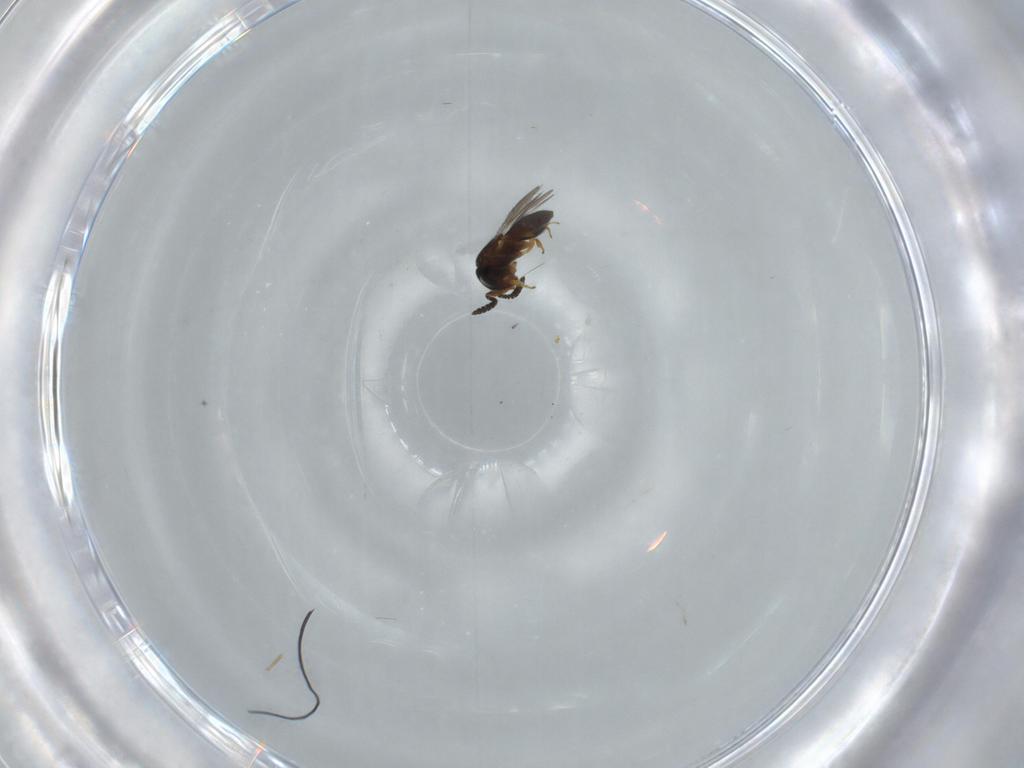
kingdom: Animalia
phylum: Arthropoda
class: Insecta
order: Hymenoptera
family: Scelionidae
